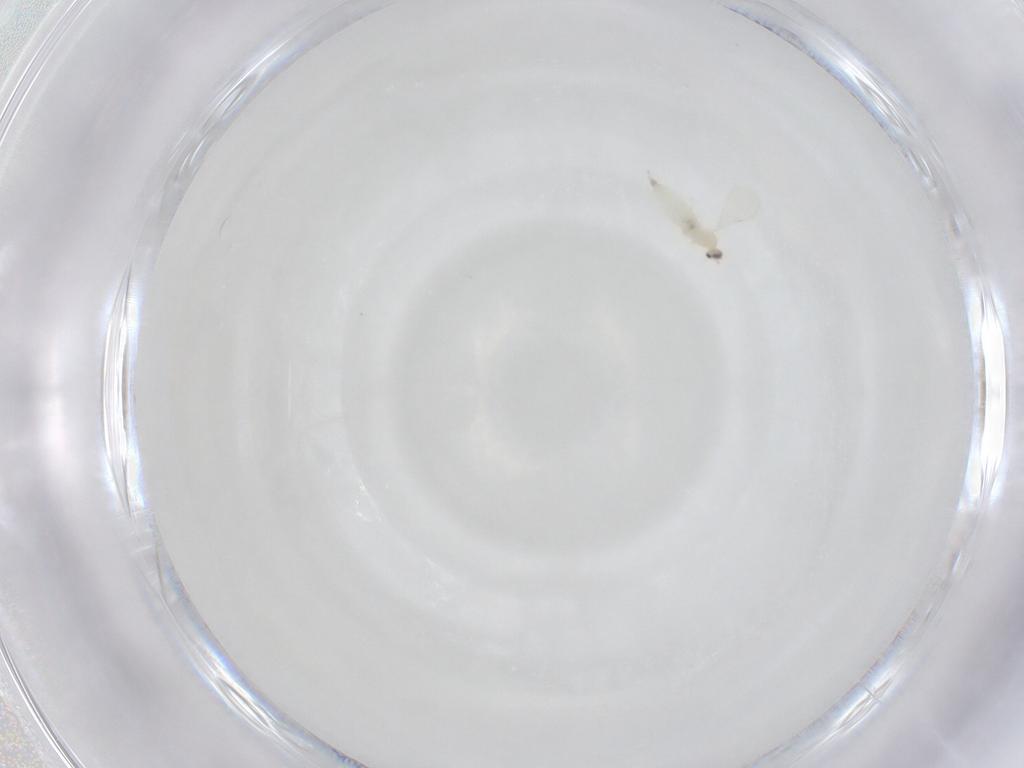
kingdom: Animalia
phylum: Arthropoda
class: Insecta
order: Diptera
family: Cecidomyiidae
